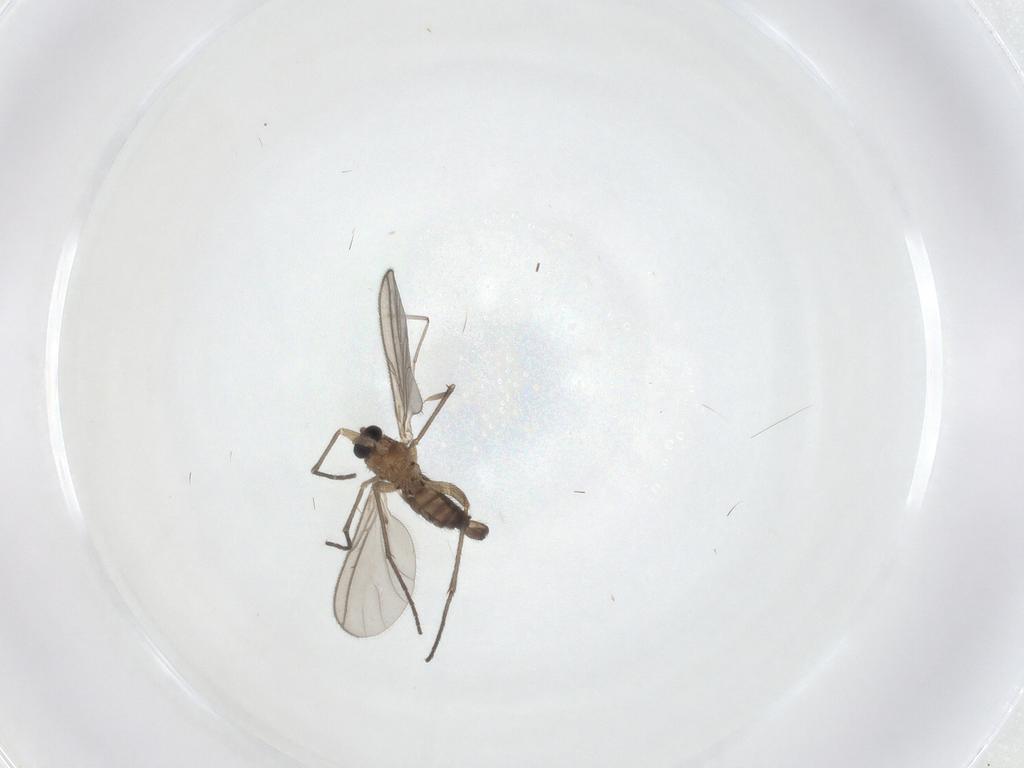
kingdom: Animalia
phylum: Arthropoda
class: Insecta
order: Diptera
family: Sciaridae
